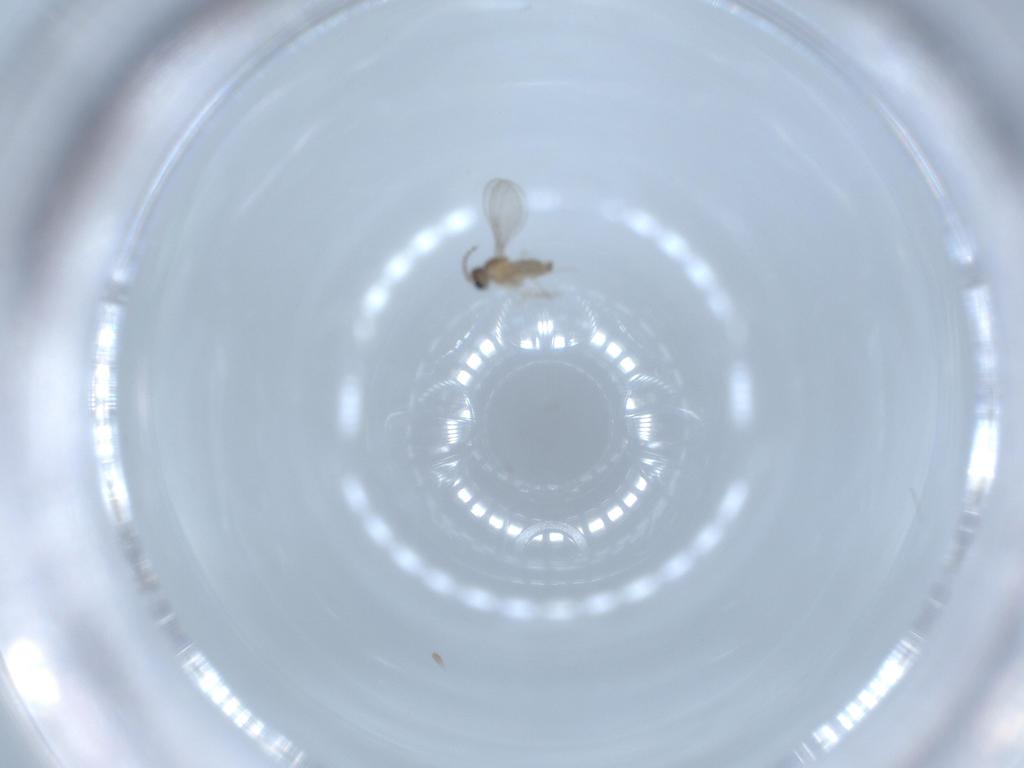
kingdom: Animalia
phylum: Arthropoda
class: Insecta
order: Diptera
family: Cecidomyiidae
